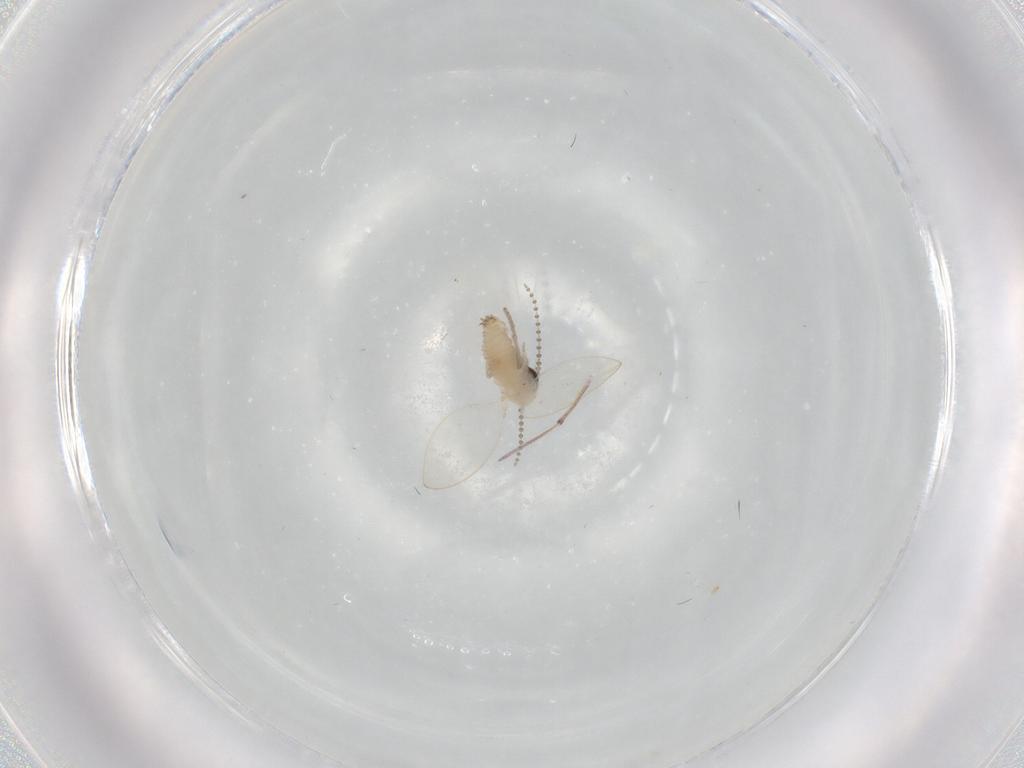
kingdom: Animalia
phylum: Arthropoda
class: Insecta
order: Diptera
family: Psychodidae
